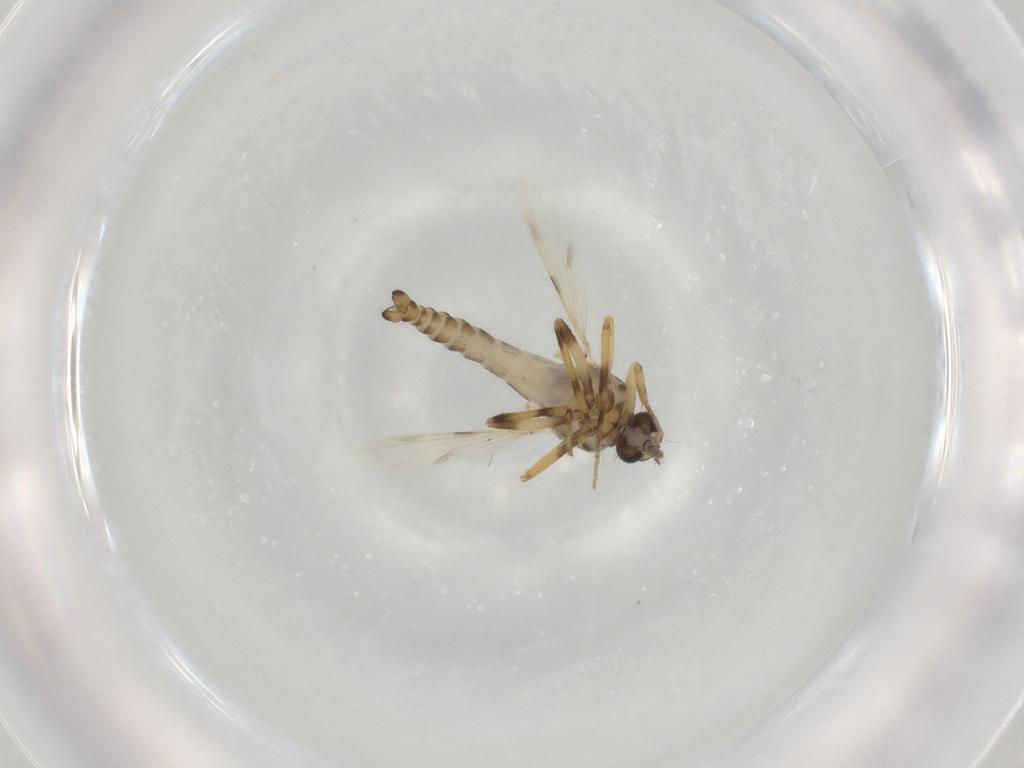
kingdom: Animalia
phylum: Arthropoda
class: Insecta
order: Diptera
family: Ceratopogonidae
